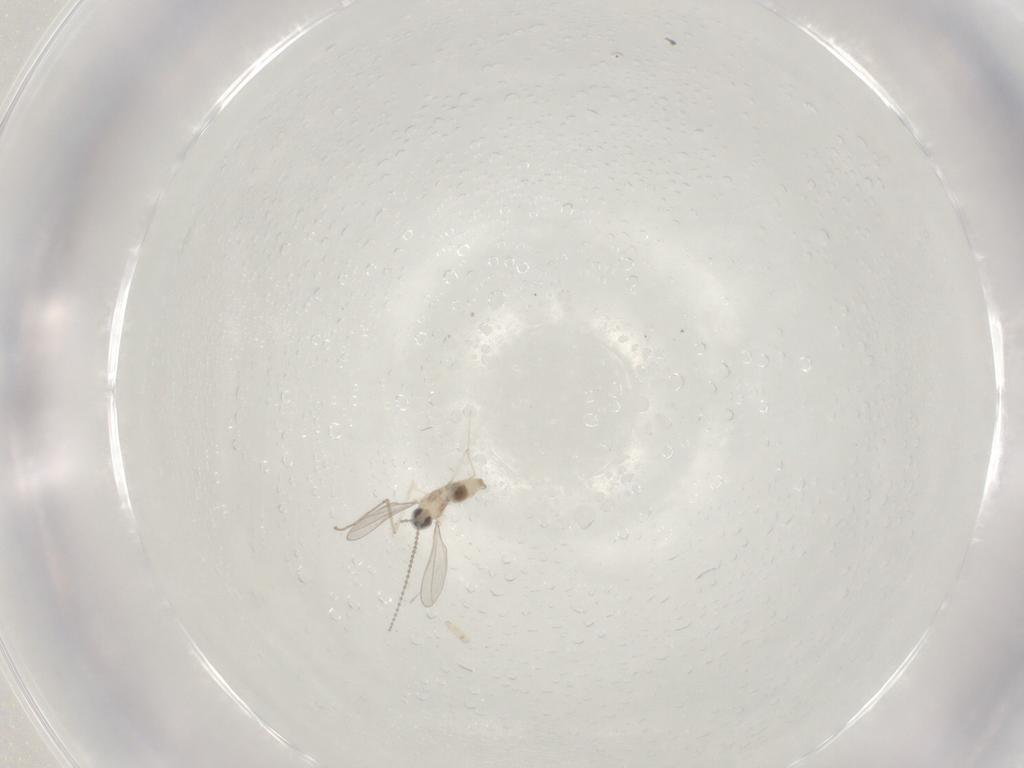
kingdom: Animalia
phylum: Arthropoda
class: Insecta
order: Diptera
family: Cecidomyiidae
